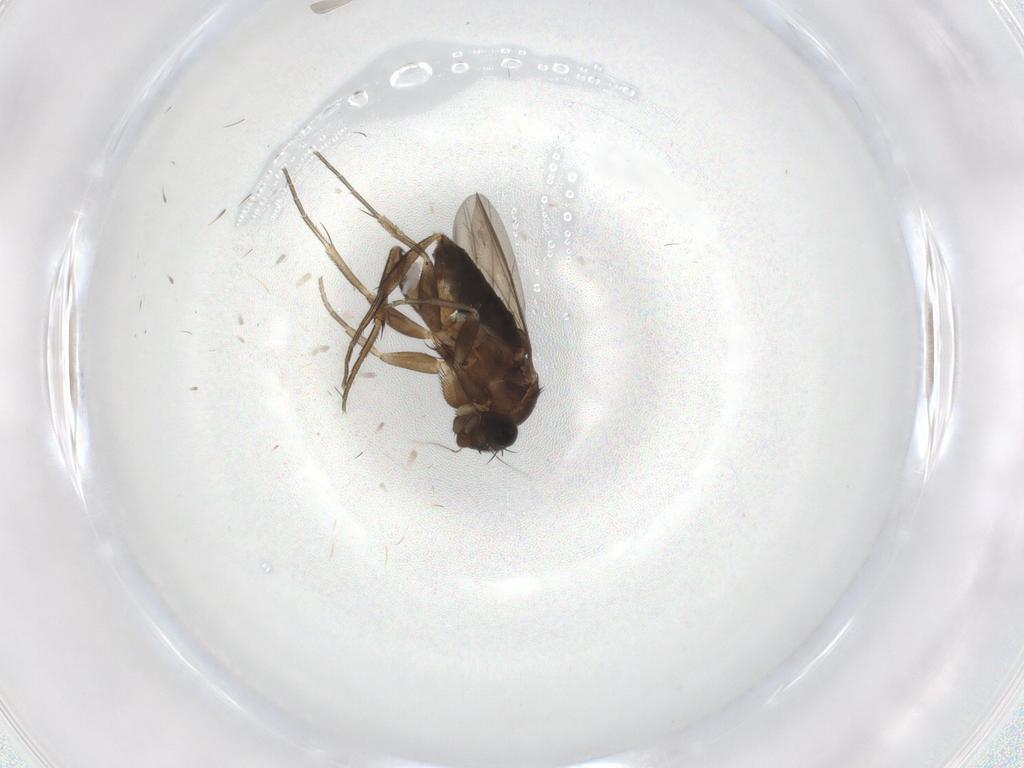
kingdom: Animalia
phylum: Arthropoda
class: Insecta
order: Diptera
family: Phoridae
